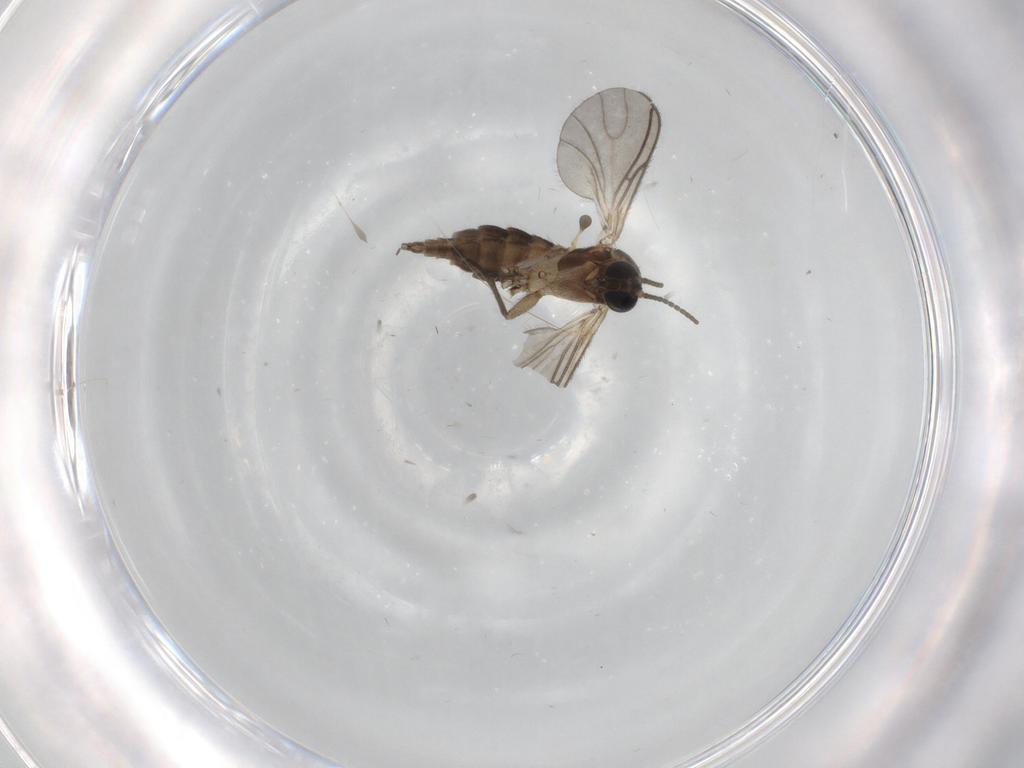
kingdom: Animalia
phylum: Arthropoda
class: Insecta
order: Diptera
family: Sciaridae
